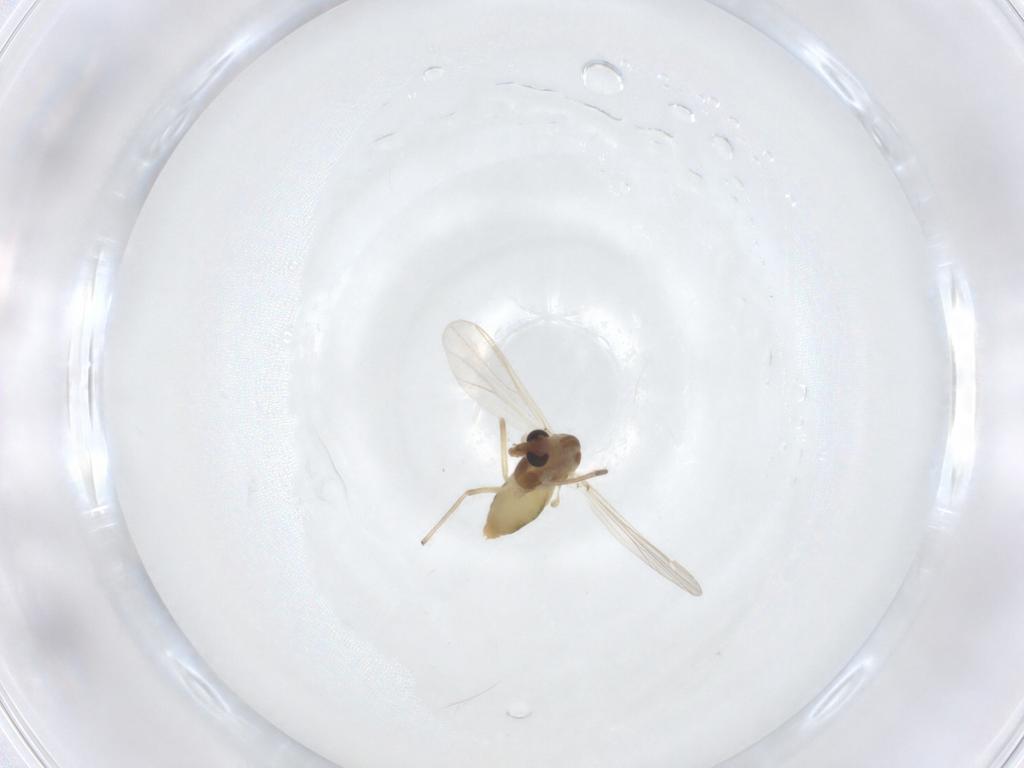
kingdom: Animalia
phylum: Arthropoda
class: Insecta
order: Diptera
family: Chironomidae
